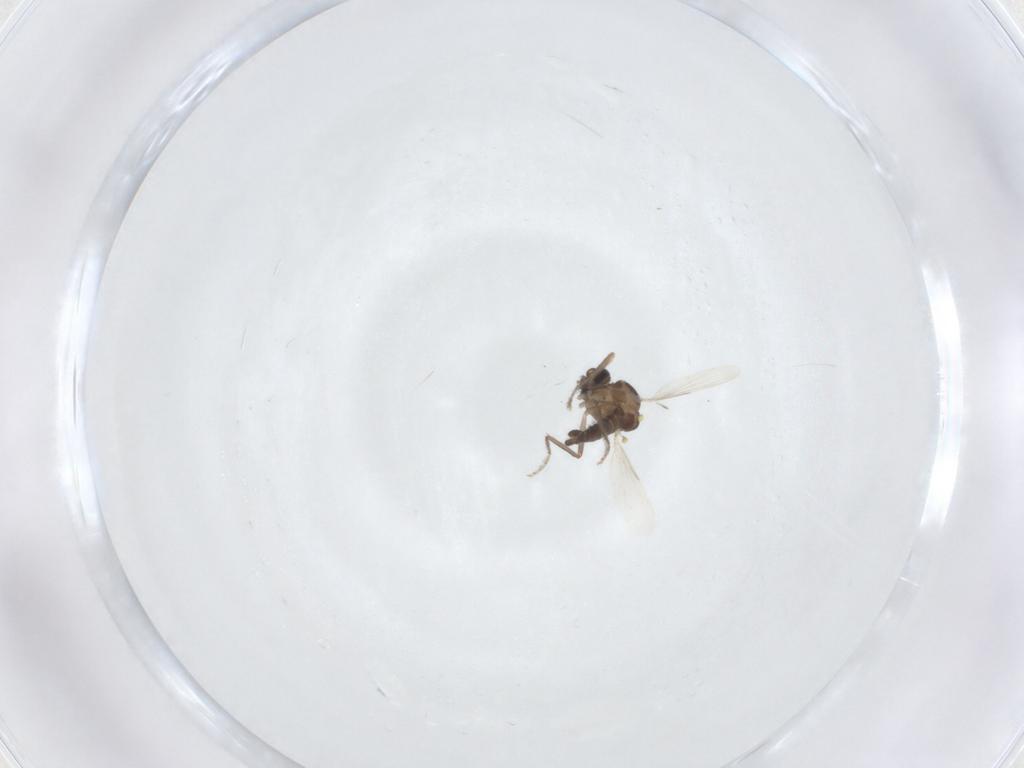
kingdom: Animalia
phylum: Arthropoda
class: Insecta
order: Diptera
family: Ceratopogonidae
